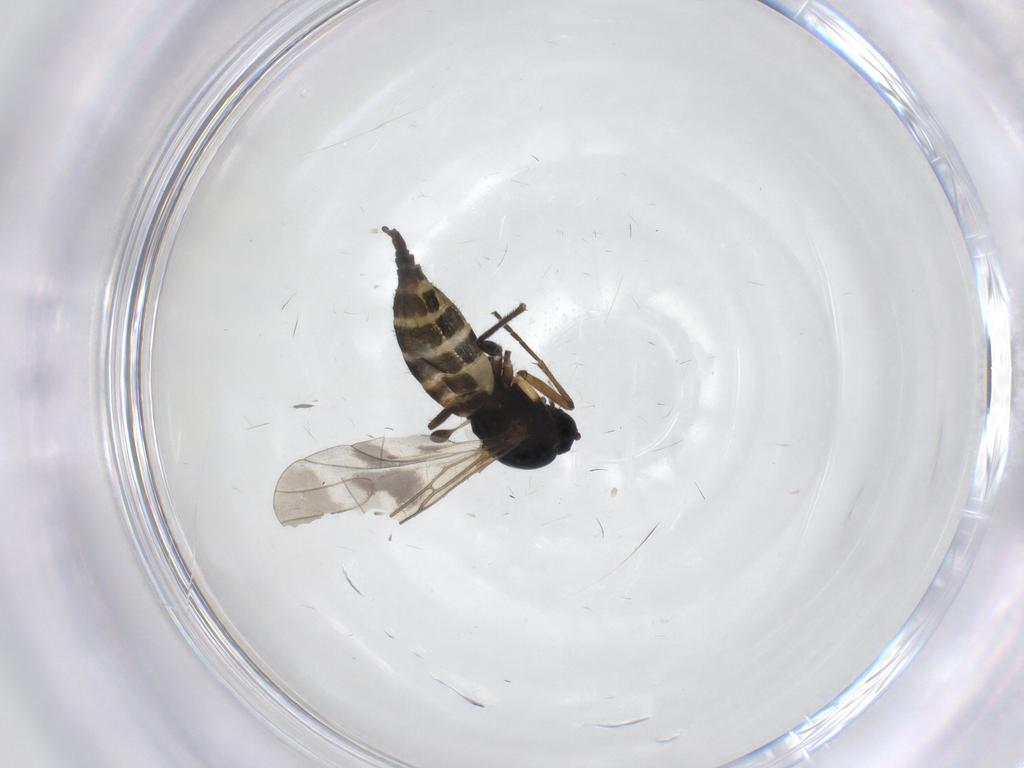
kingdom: Animalia
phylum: Arthropoda
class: Insecta
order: Diptera
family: Sciaridae
